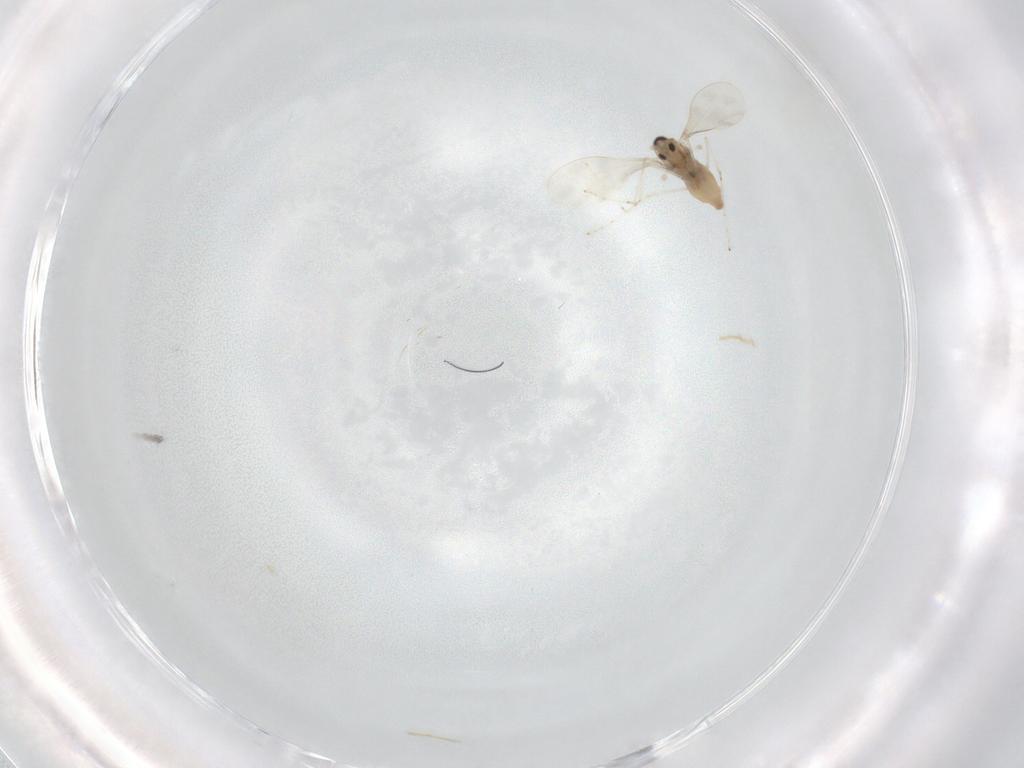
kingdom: Animalia
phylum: Arthropoda
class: Insecta
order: Diptera
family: Cecidomyiidae
